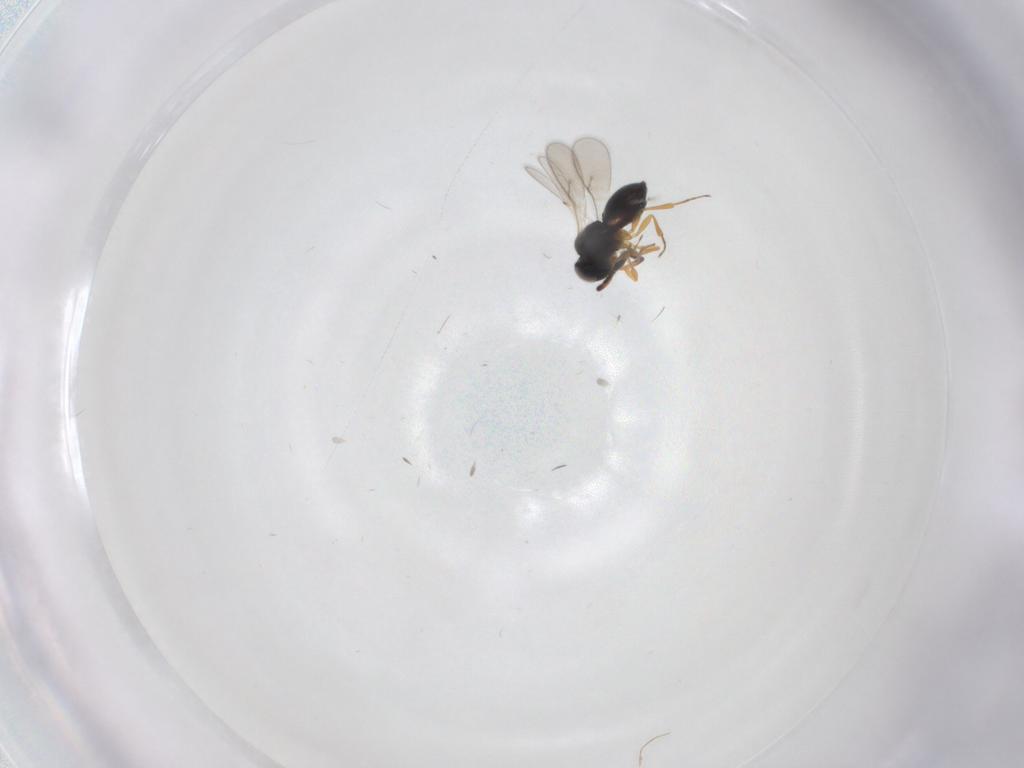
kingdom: Animalia
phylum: Arthropoda
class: Insecta
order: Hymenoptera
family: Scelionidae
